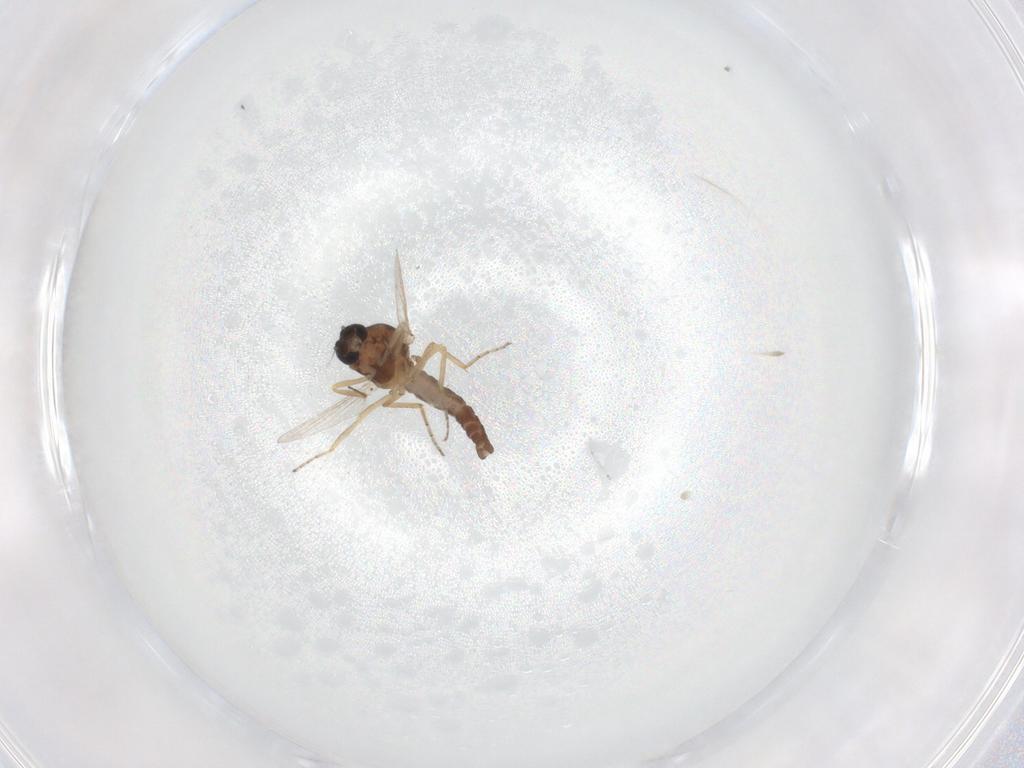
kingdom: Animalia
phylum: Arthropoda
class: Insecta
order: Diptera
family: Ceratopogonidae
